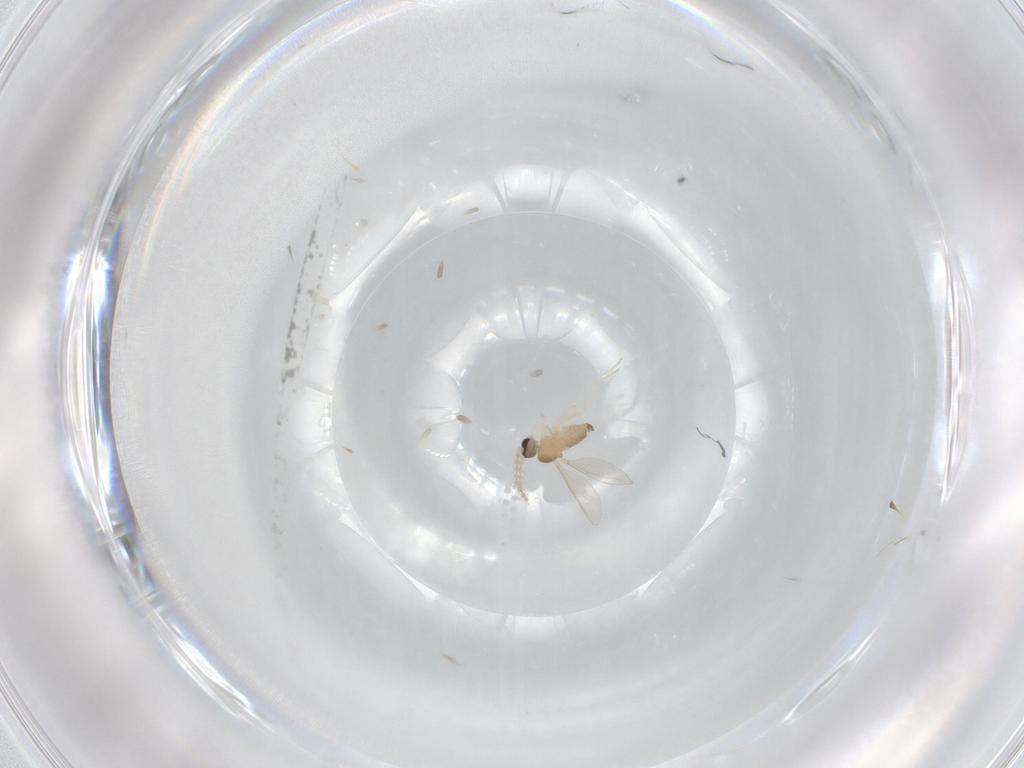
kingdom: Animalia
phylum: Arthropoda
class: Insecta
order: Diptera
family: Cecidomyiidae
